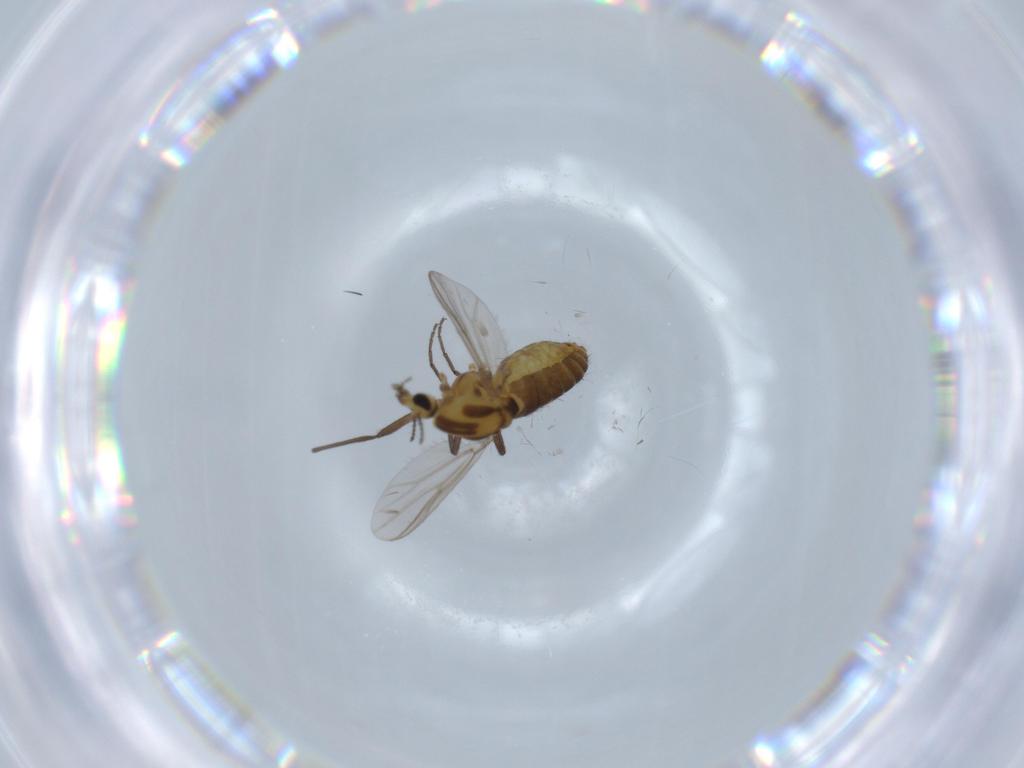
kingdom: Animalia
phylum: Arthropoda
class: Insecta
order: Diptera
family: Chironomidae
